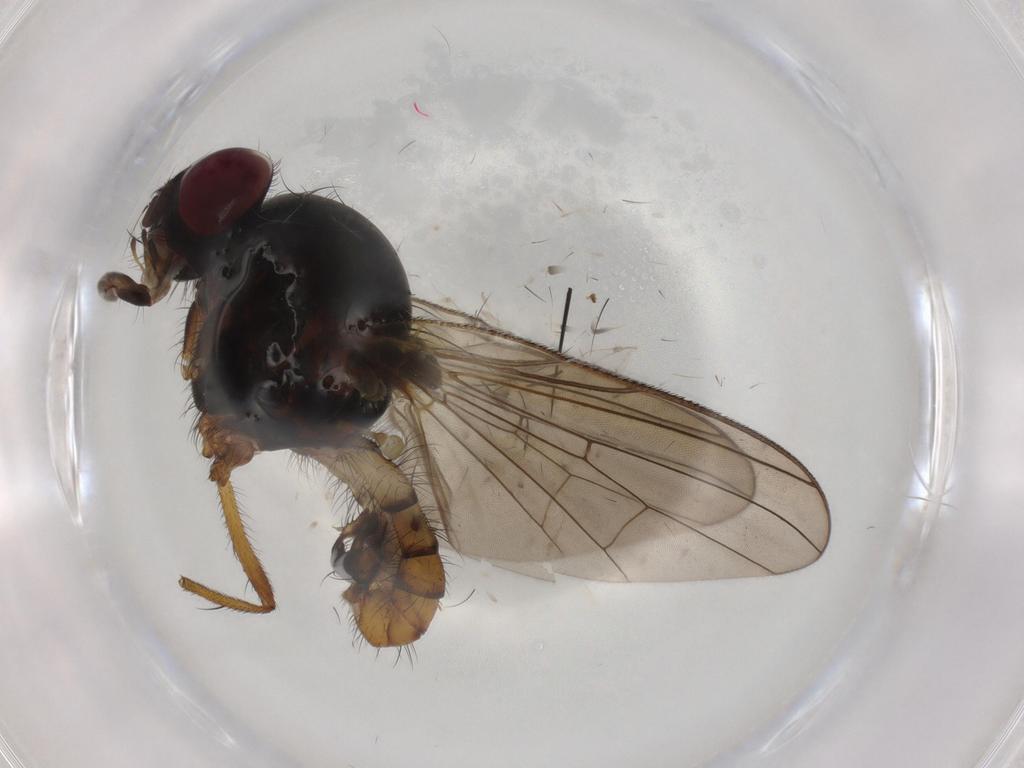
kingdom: Animalia
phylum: Arthropoda
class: Insecta
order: Diptera
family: Anthomyiidae
